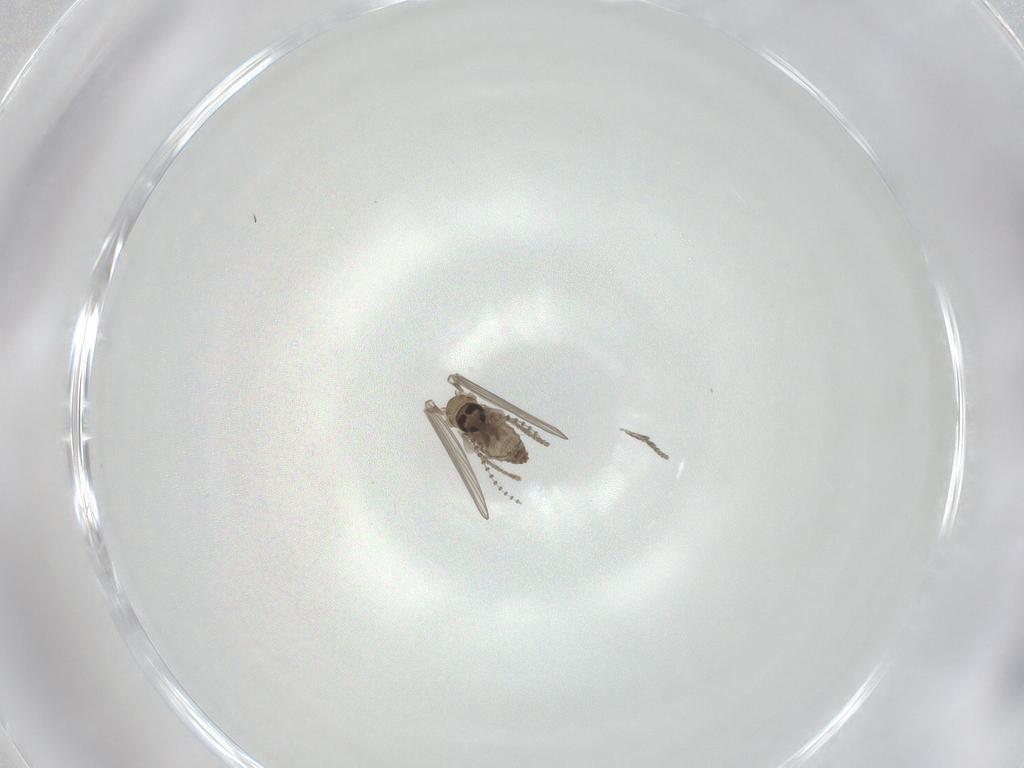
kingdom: Animalia
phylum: Arthropoda
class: Insecta
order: Diptera
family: Psychodidae
